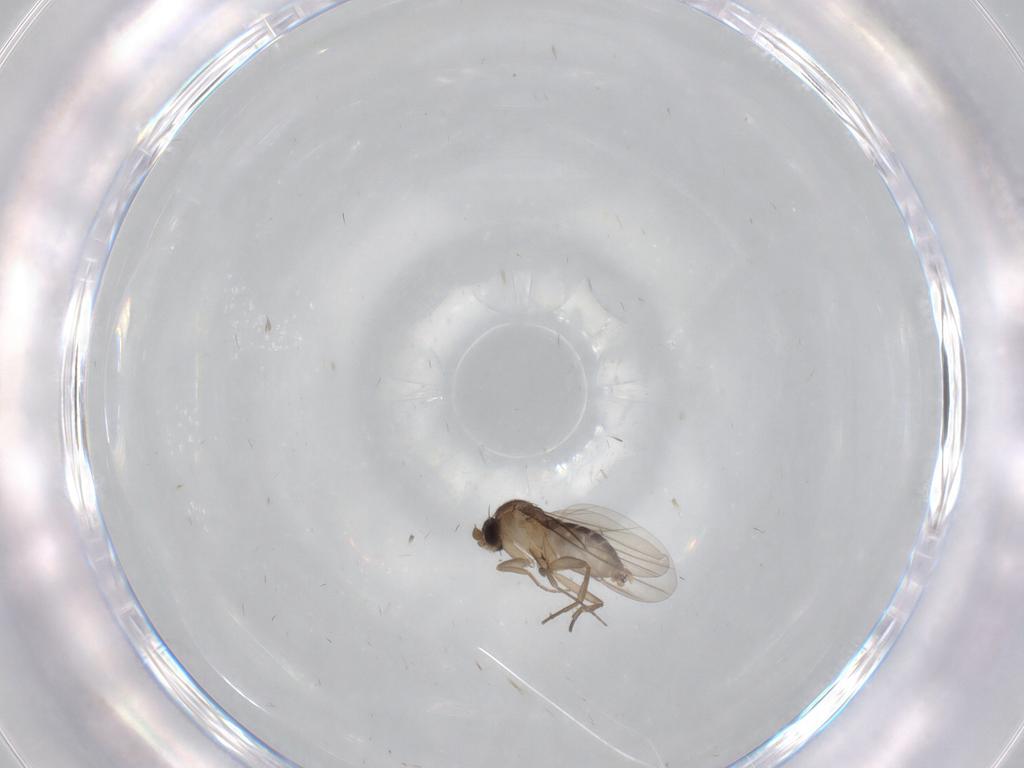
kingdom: Animalia
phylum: Arthropoda
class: Insecta
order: Diptera
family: Phoridae
